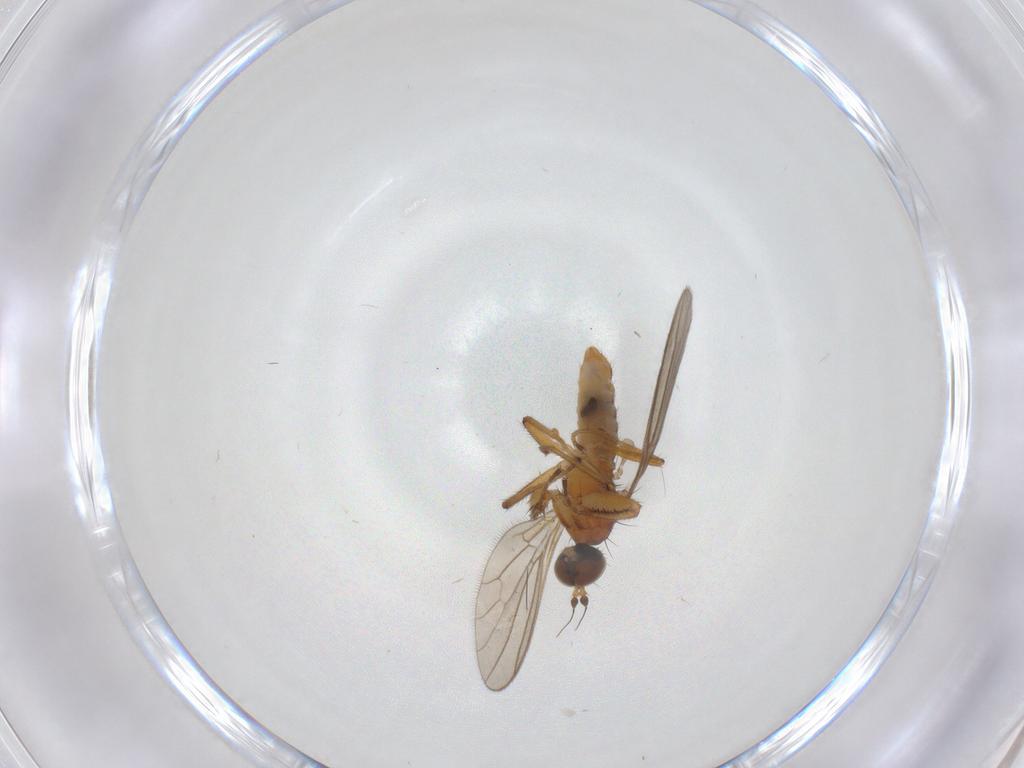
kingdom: Animalia
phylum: Arthropoda
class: Insecta
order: Diptera
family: Empididae
